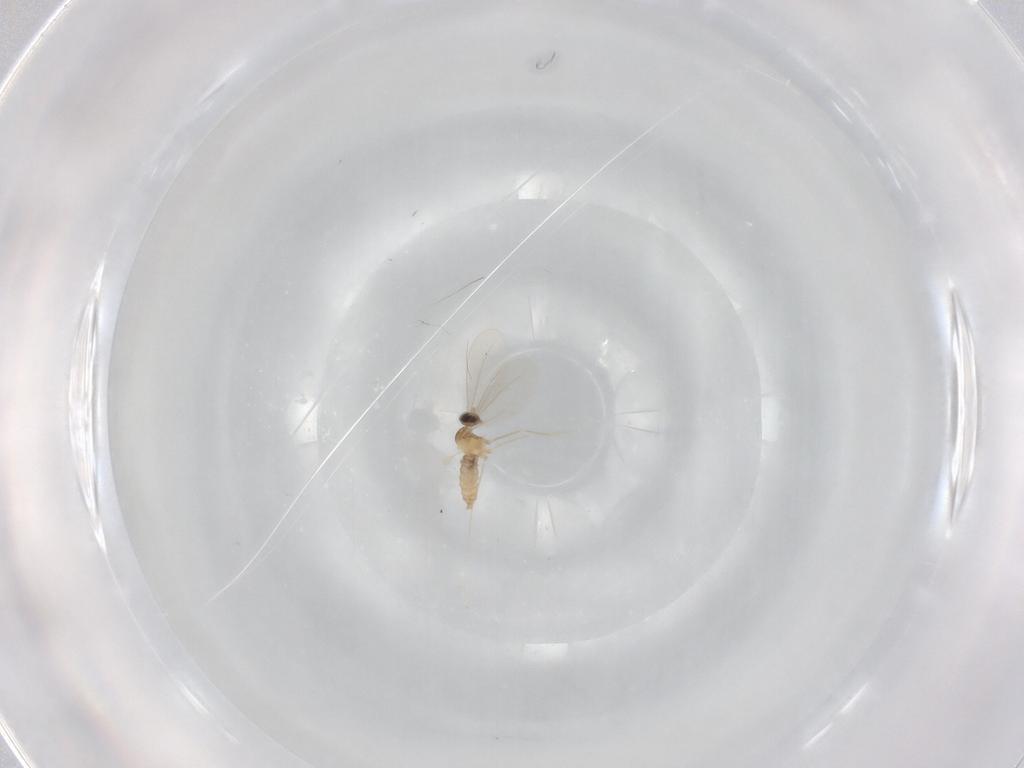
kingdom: Animalia
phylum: Arthropoda
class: Insecta
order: Diptera
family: Cecidomyiidae
